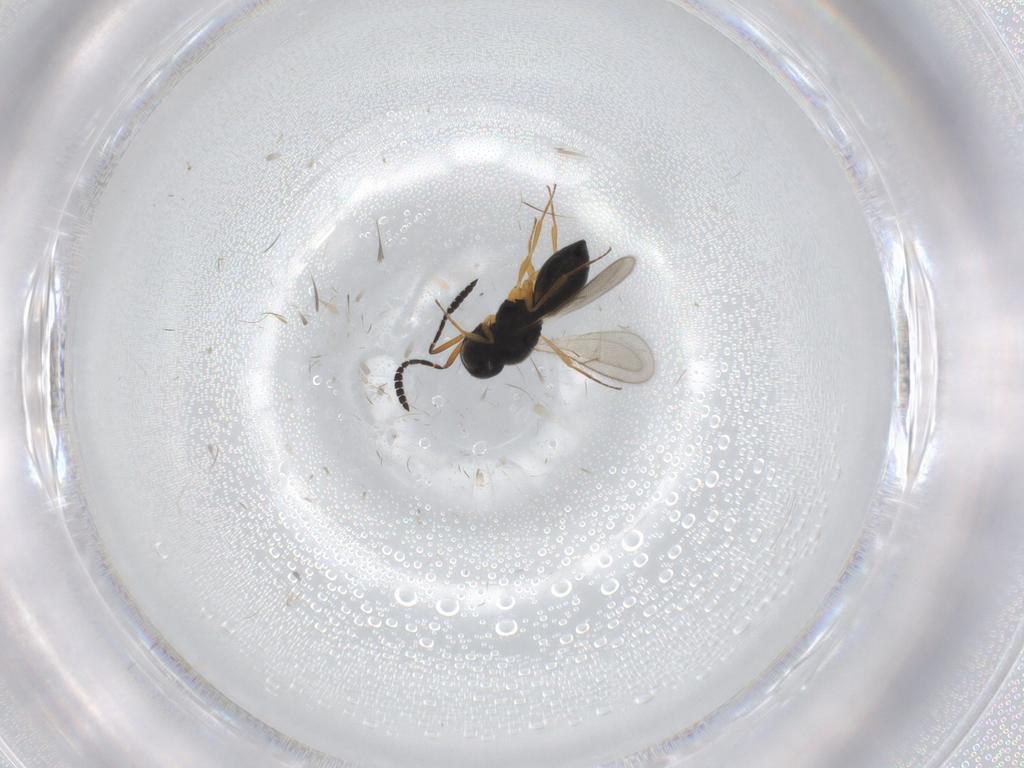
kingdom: Animalia
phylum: Arthropoda
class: Insecta
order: Hymenoptera
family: Scelionidae
